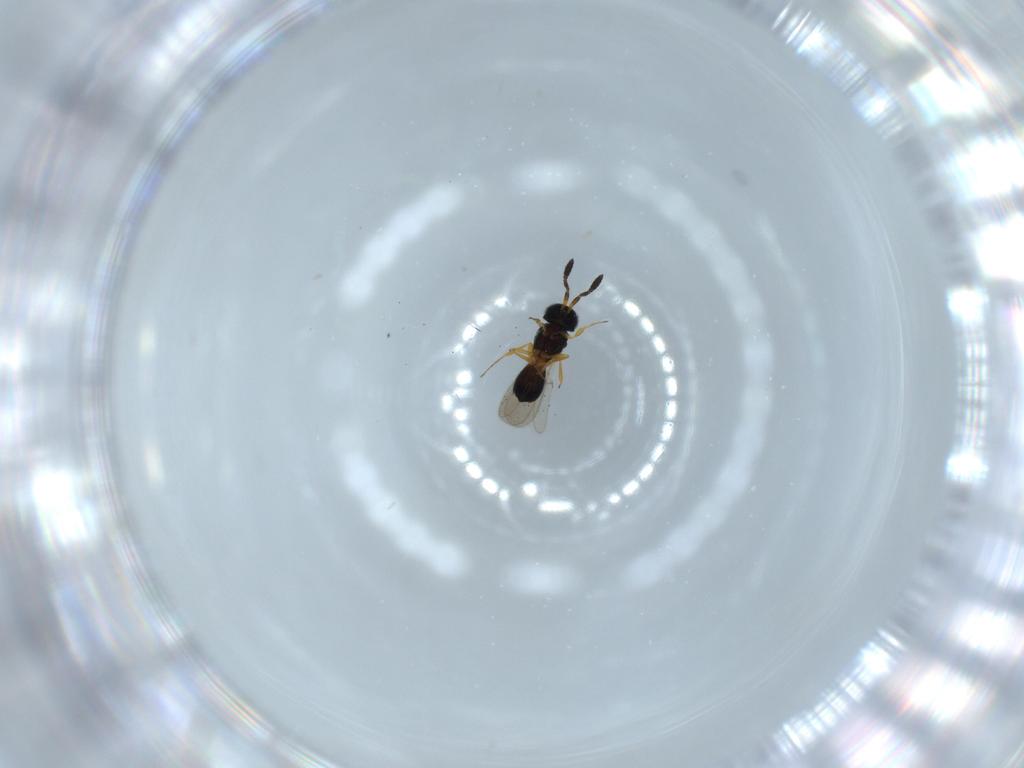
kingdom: Animalia
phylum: Arthropoda
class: Insecta
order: Hymenoptera
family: Scelionidae
